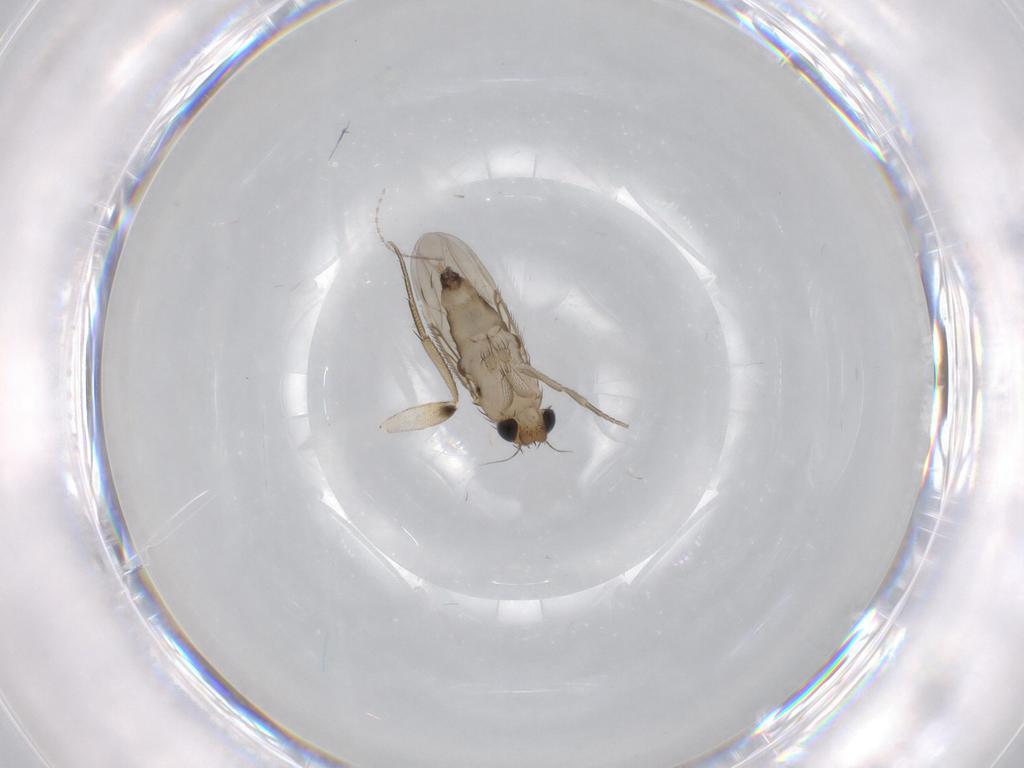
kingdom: Animalia
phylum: Arthropoda
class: Insecta
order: Diptera
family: Phoridae
